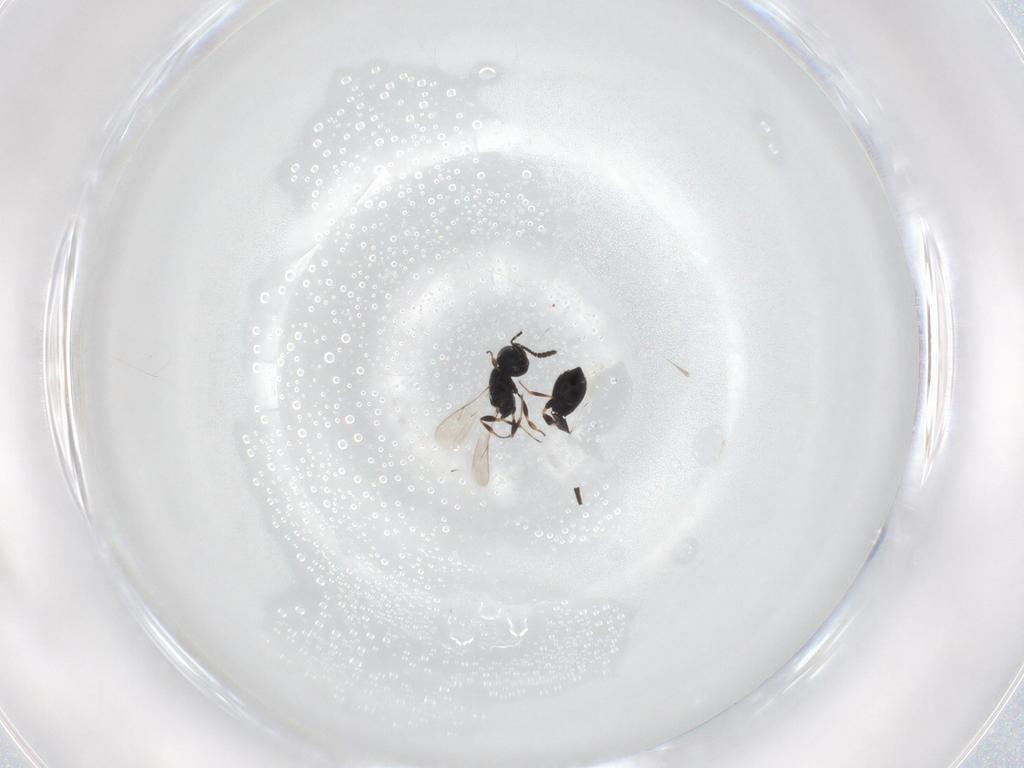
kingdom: Animalia
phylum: Arthropoda
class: Insecta
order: Hymenoptera
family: Scelionidae
